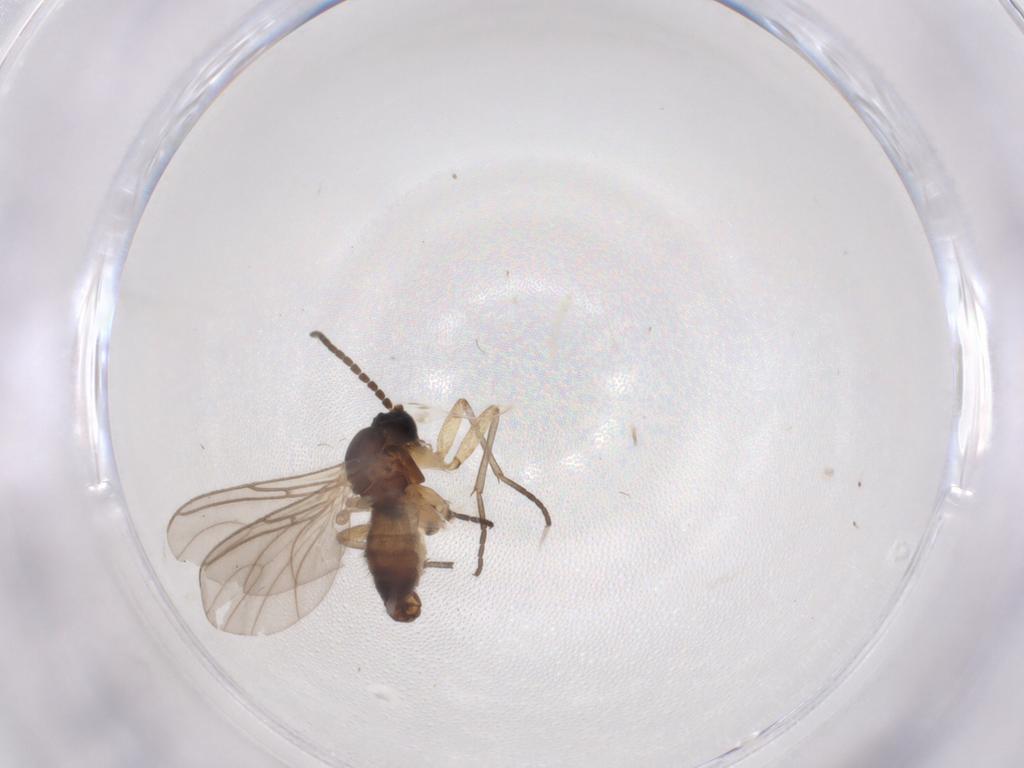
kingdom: Animalia
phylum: Arthropoda
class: Insecta
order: Diptera
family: Sciaridae
